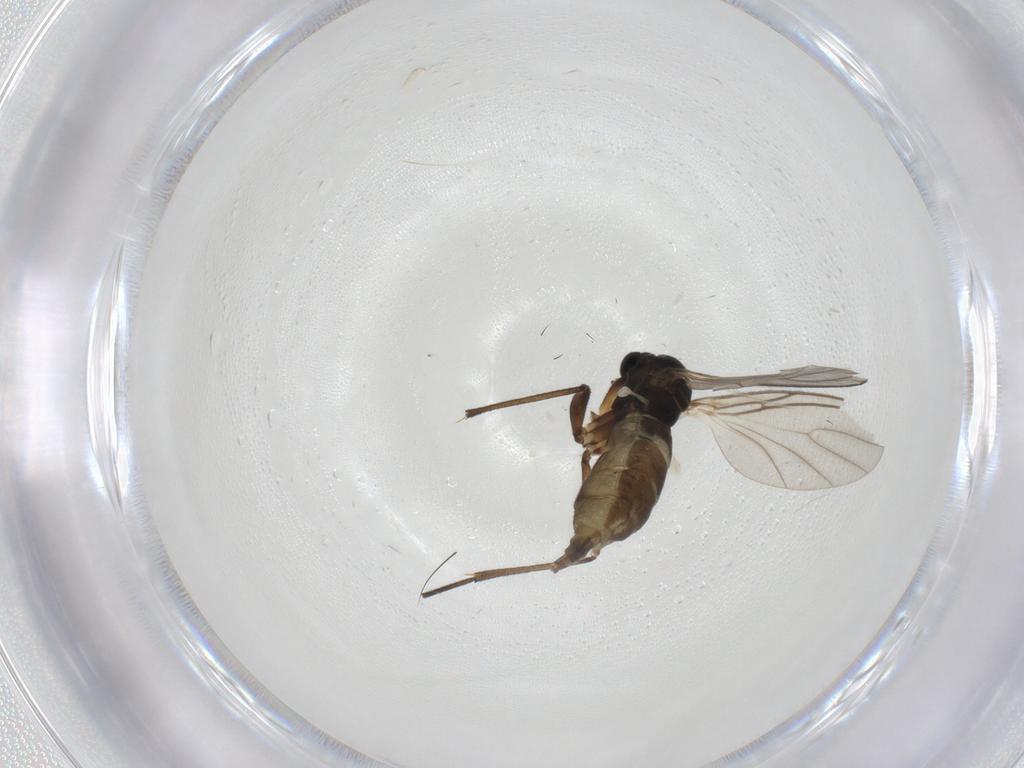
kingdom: Animalia
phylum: Arthropoda
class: Insecta
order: Diptera
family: Sciaridae
